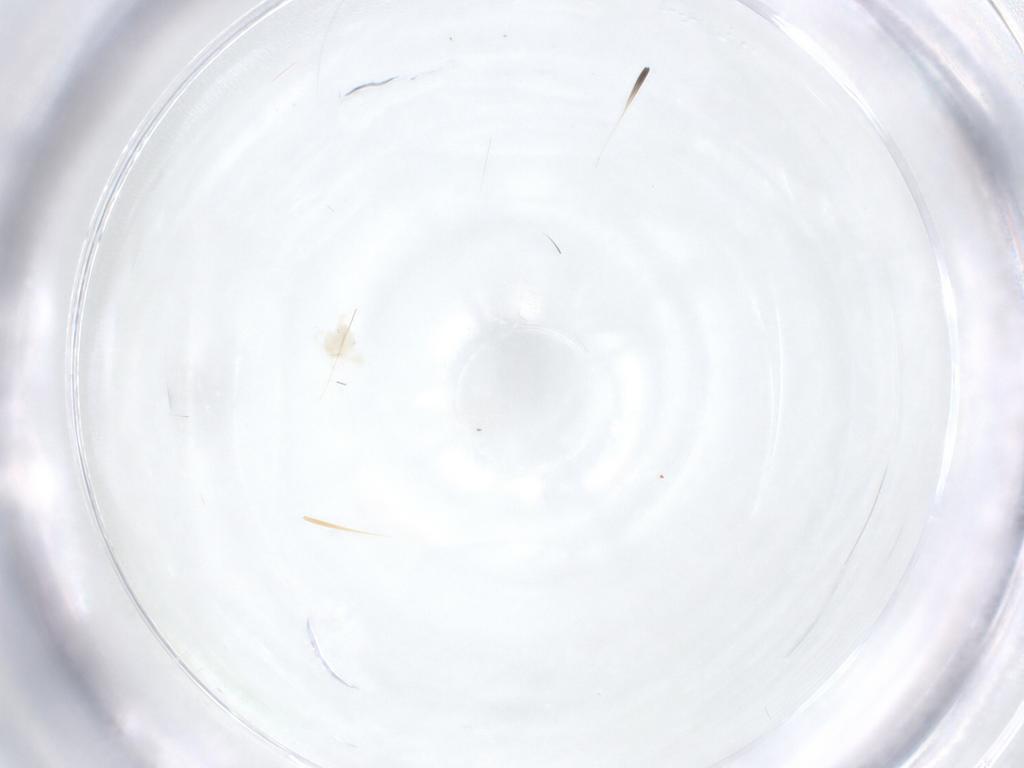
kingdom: Animalia
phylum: Arthropoda
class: Arachnida
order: Trombidiformes
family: Anystidae
